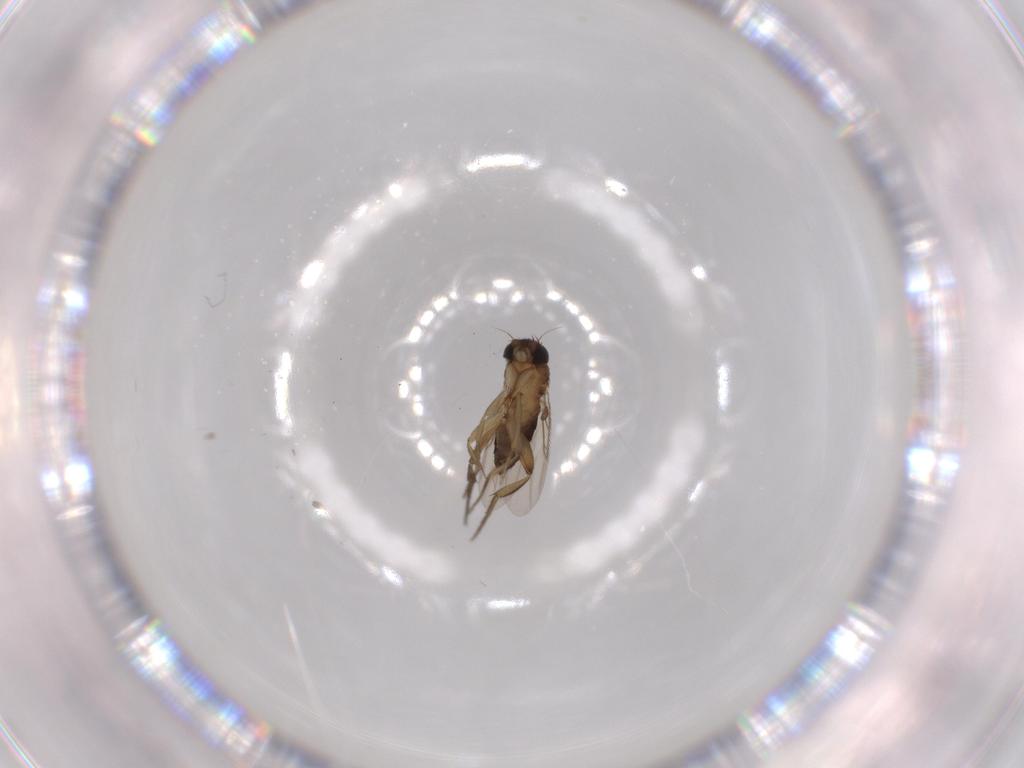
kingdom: Animalia
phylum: Arthropoda
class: Insecta
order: Diptera
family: Phoridae
